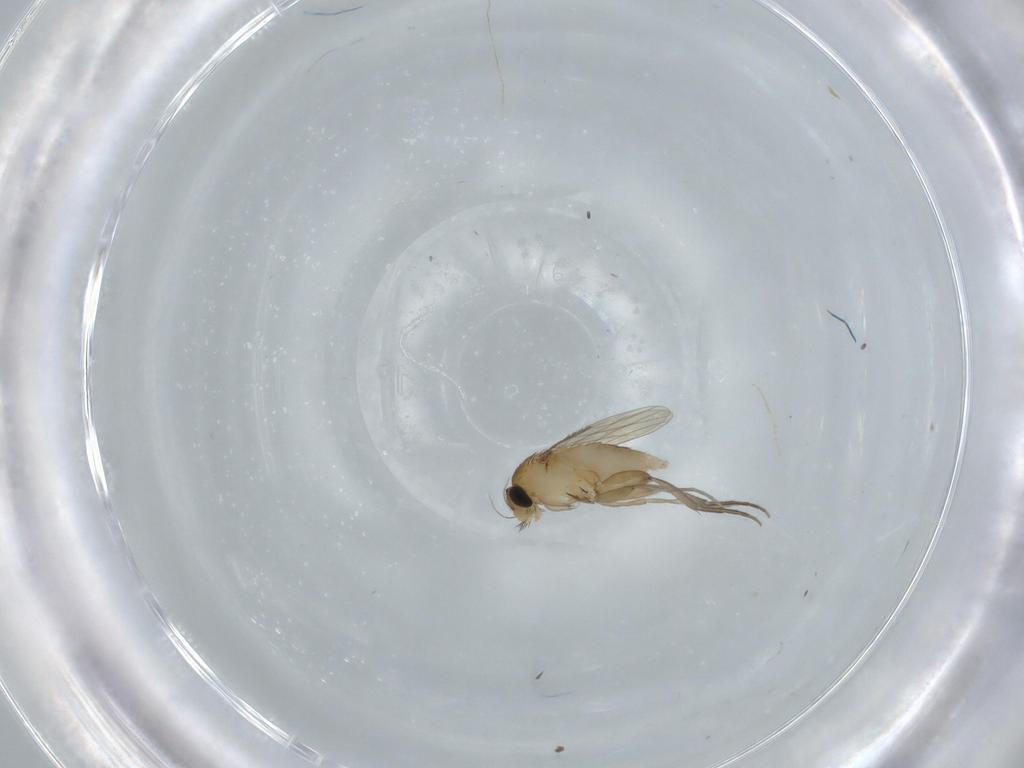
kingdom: Animalia
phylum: Arthropoda
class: Insecta
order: Diptera
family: Phoridae
